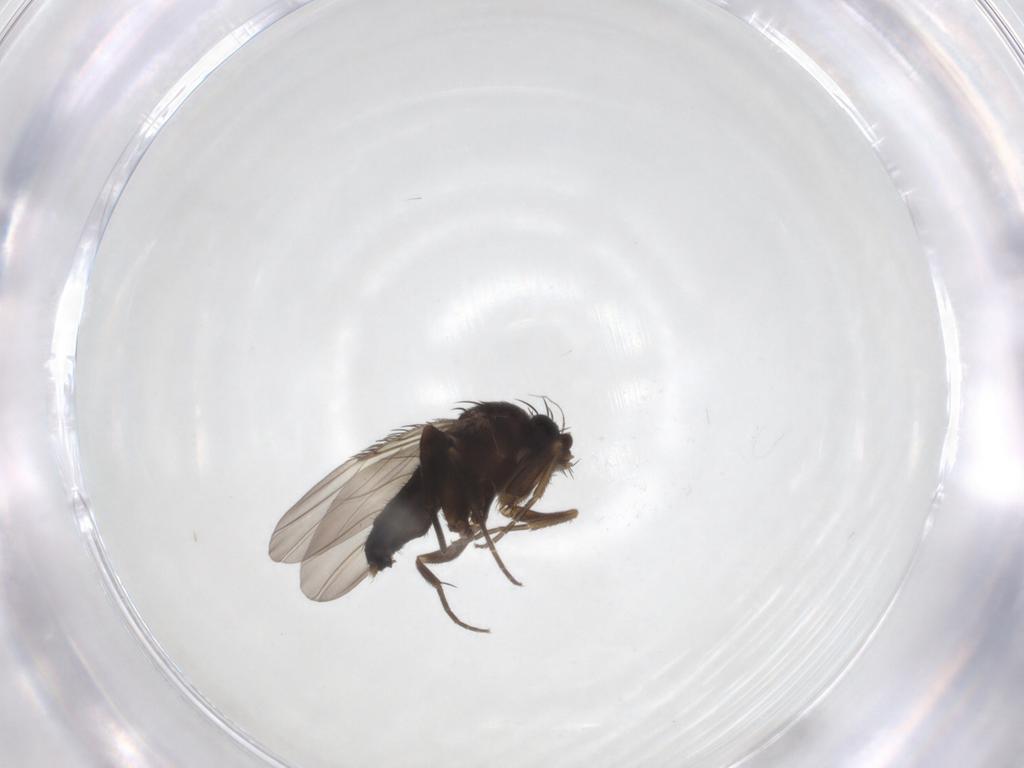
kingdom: Animalia
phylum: Arthropoda
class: Insecta
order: Diptera
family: Phoridae
